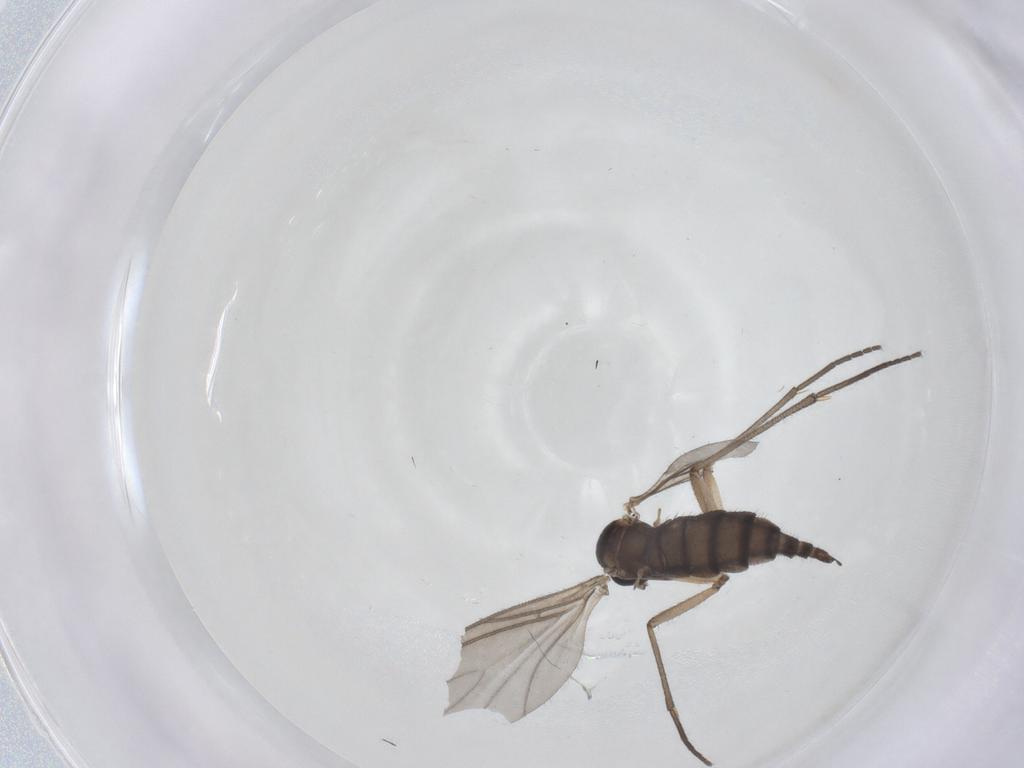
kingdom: Animalia
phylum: Arthropoda
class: Insecta
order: Diptera
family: Sciaridae
